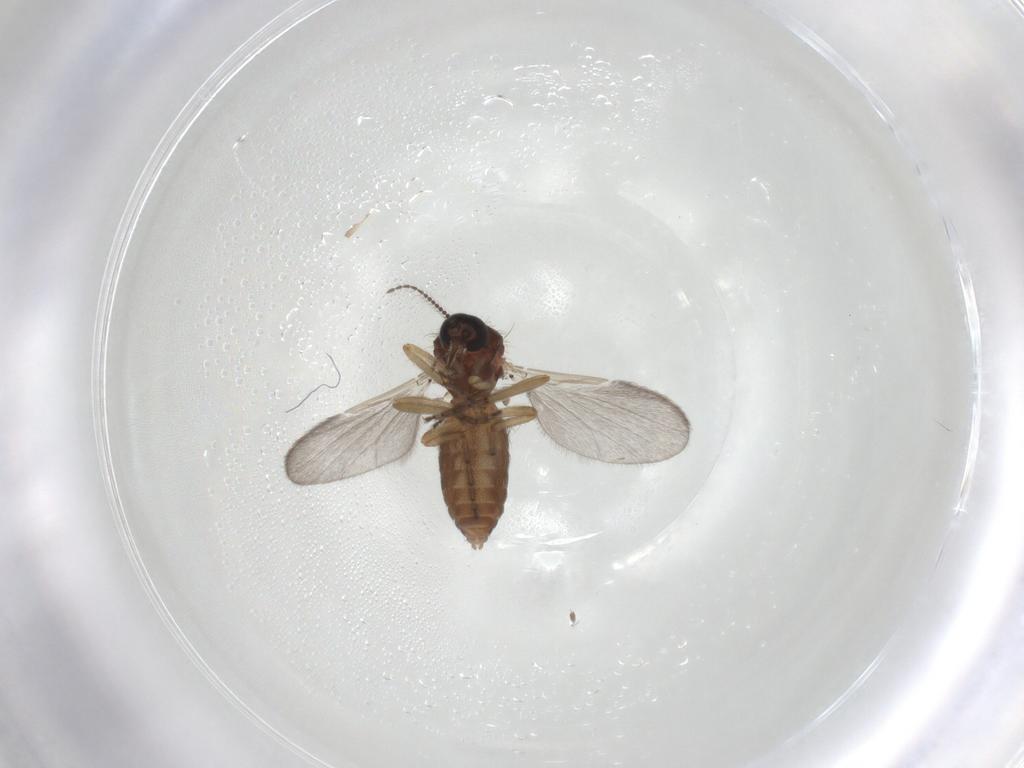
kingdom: Animalia
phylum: Arthropoda
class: Insecta
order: Diptera
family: Ceratopogonidae
